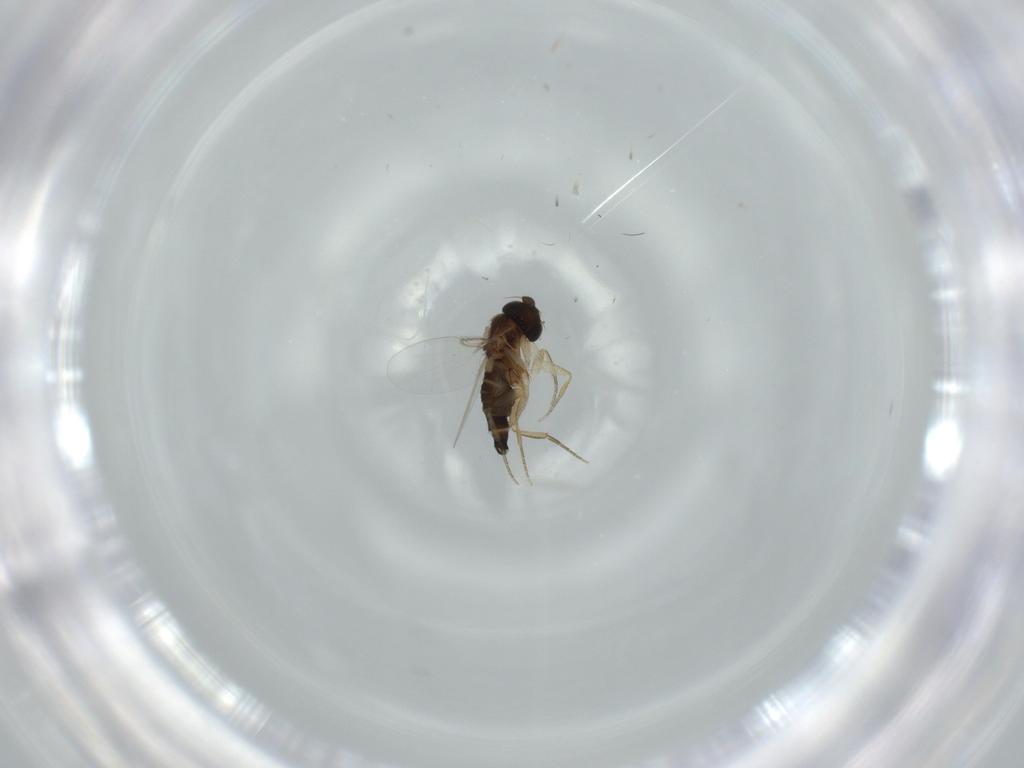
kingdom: Animalia
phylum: Arthropoda
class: Insecta
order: Diptera
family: Phoridae
